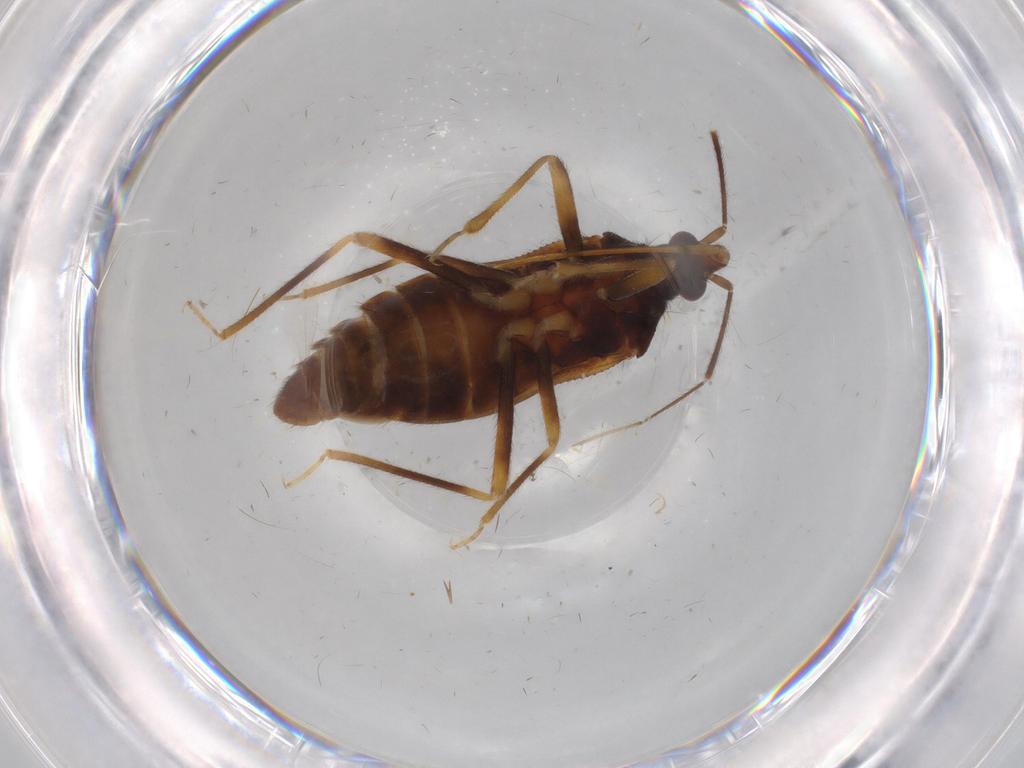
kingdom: Animalia
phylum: Arthropoda
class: Insecta
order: Hemiptera
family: Anthocoridae
